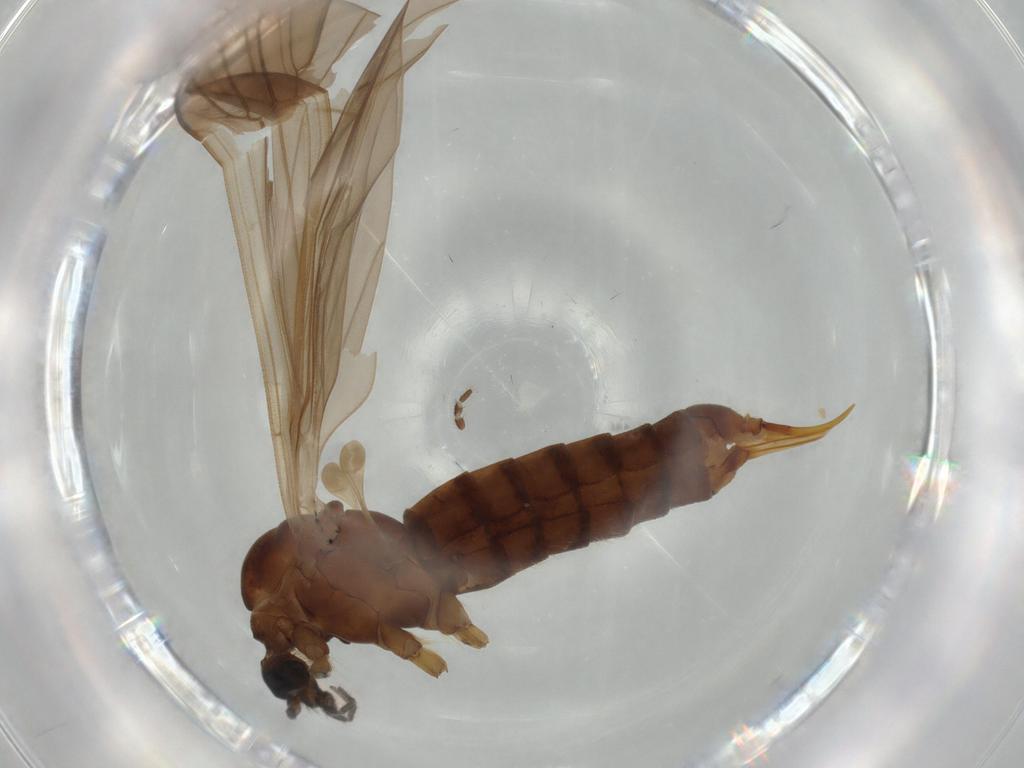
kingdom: Animalia
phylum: Arthropoda
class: Insecta
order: Diptera
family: Limoniidae
